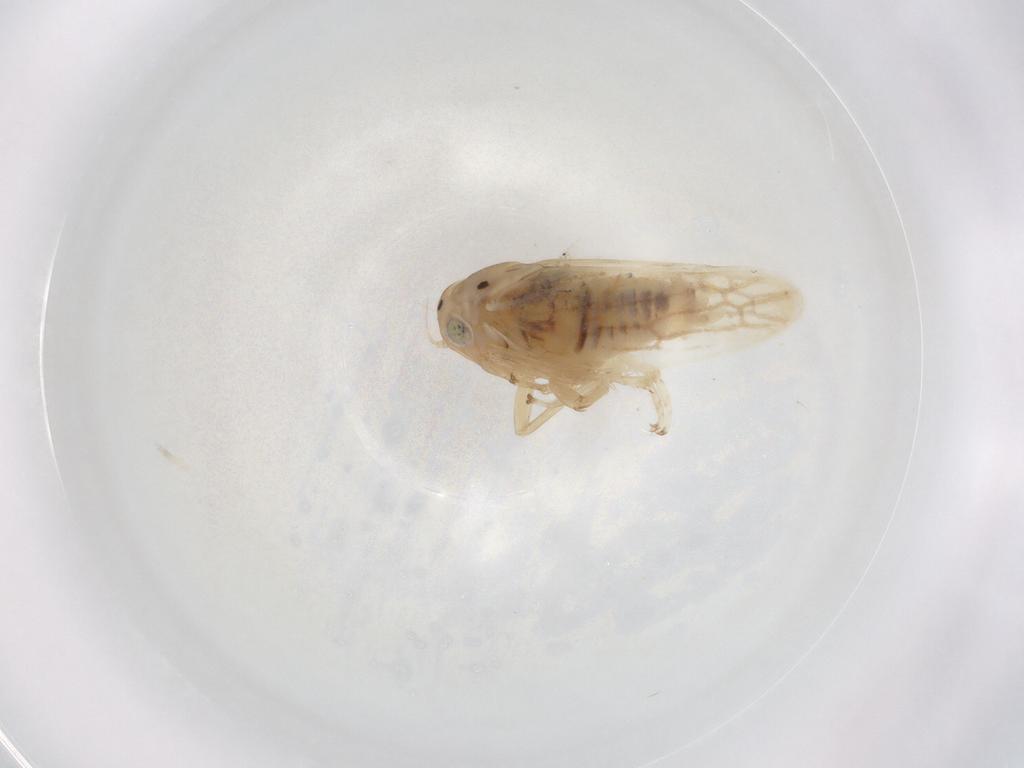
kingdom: Animalia
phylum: Arthropoda
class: Insecta
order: Hemiptera
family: Cicadellidae
